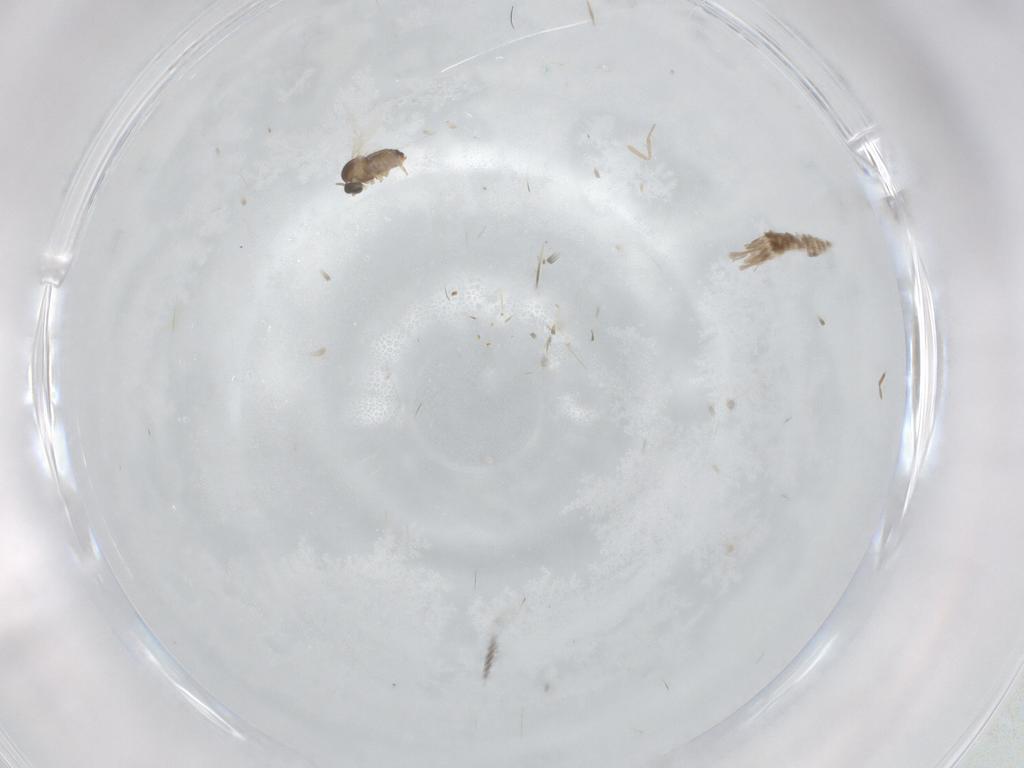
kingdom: Animalia
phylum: Arthropoda
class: Insecta
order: Diptera
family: Cecidomyiidae
